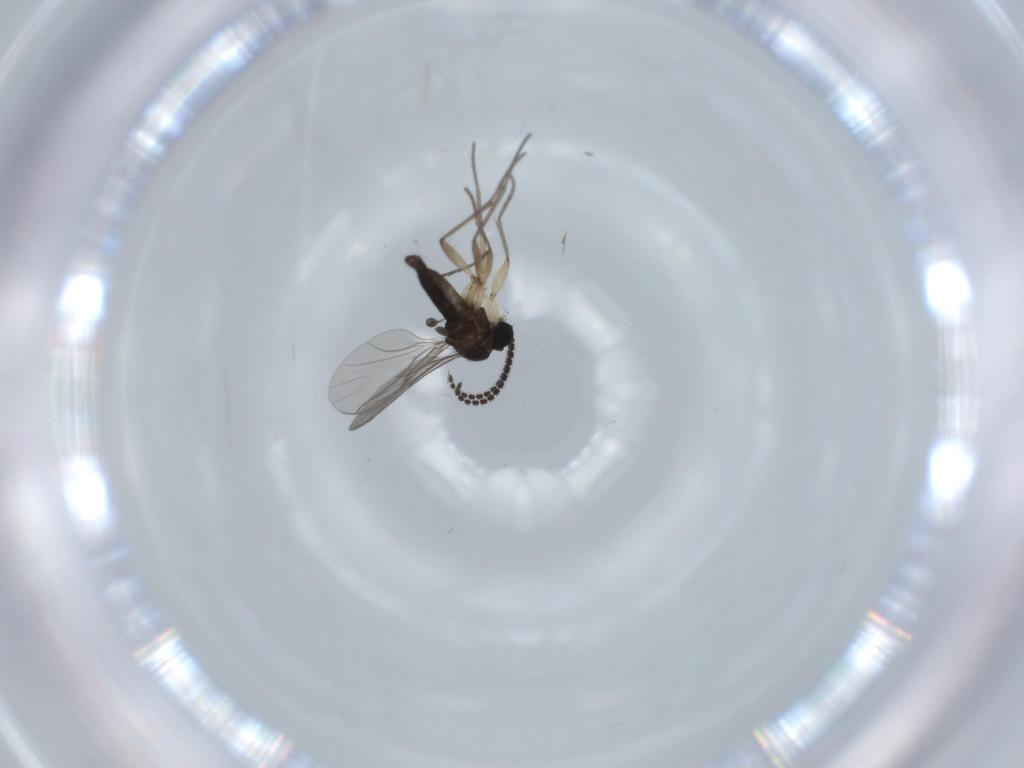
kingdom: Animalia
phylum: Arthropoda
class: Insecta
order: Diptera
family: Sciaridae
